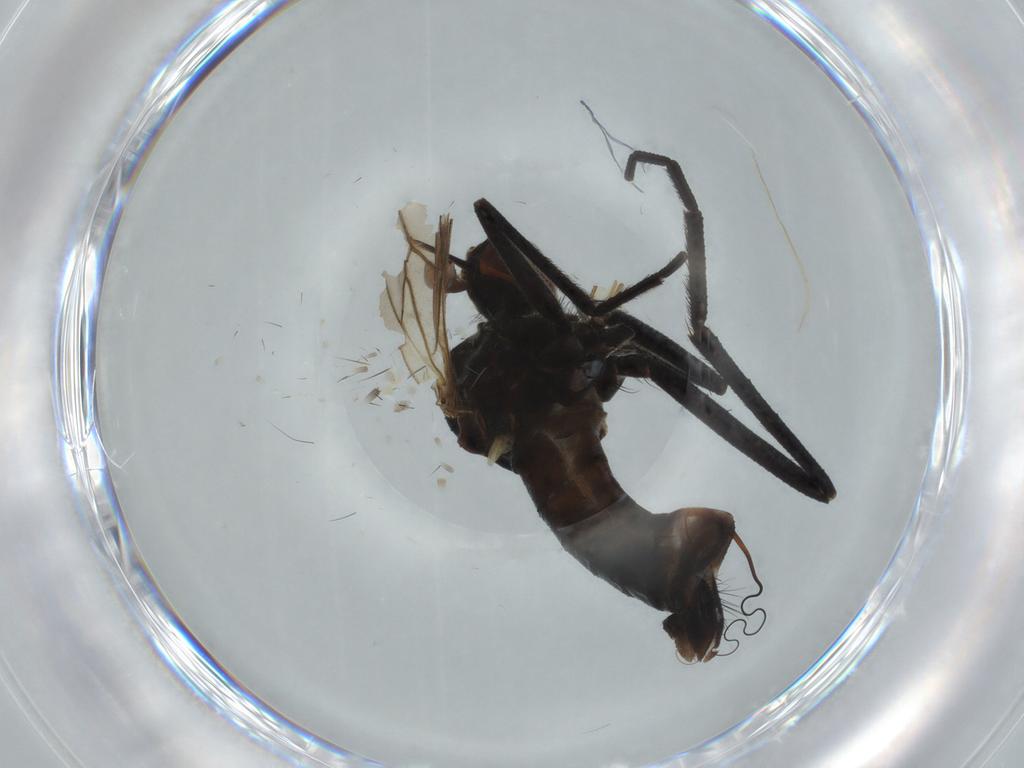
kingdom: Animalia
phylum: Arthropoda
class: Insecta
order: Diptera
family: Empididae
